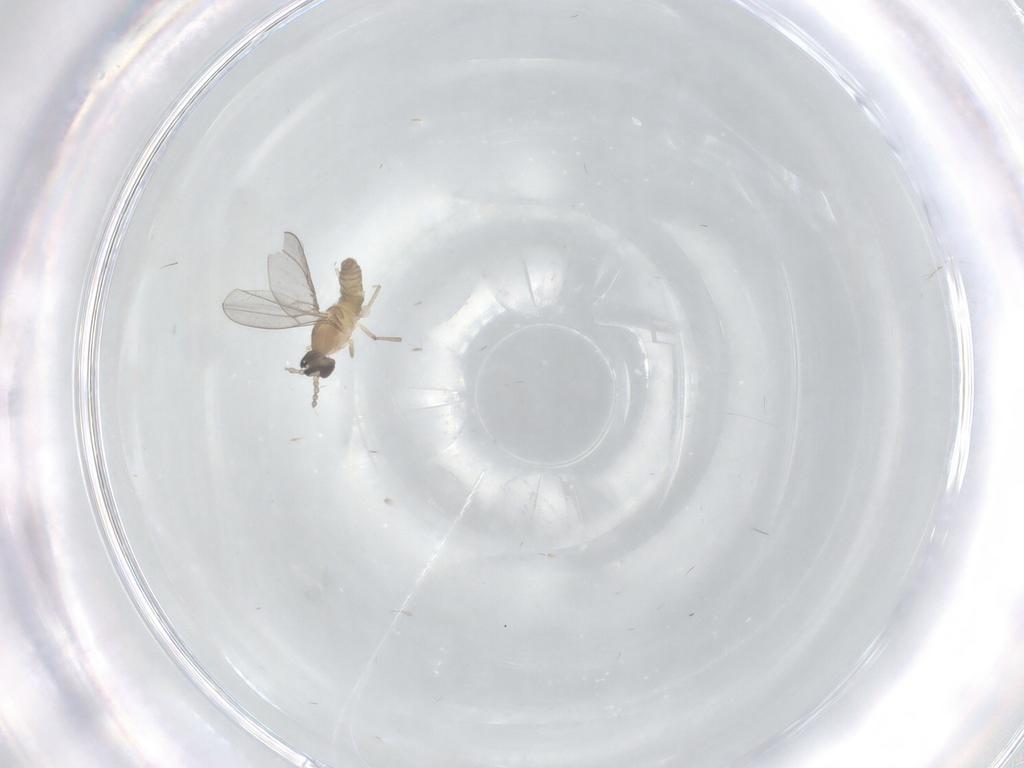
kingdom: Animalia
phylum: Arthropoda
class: Insecta
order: Diptera
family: Cecidomyiidae
